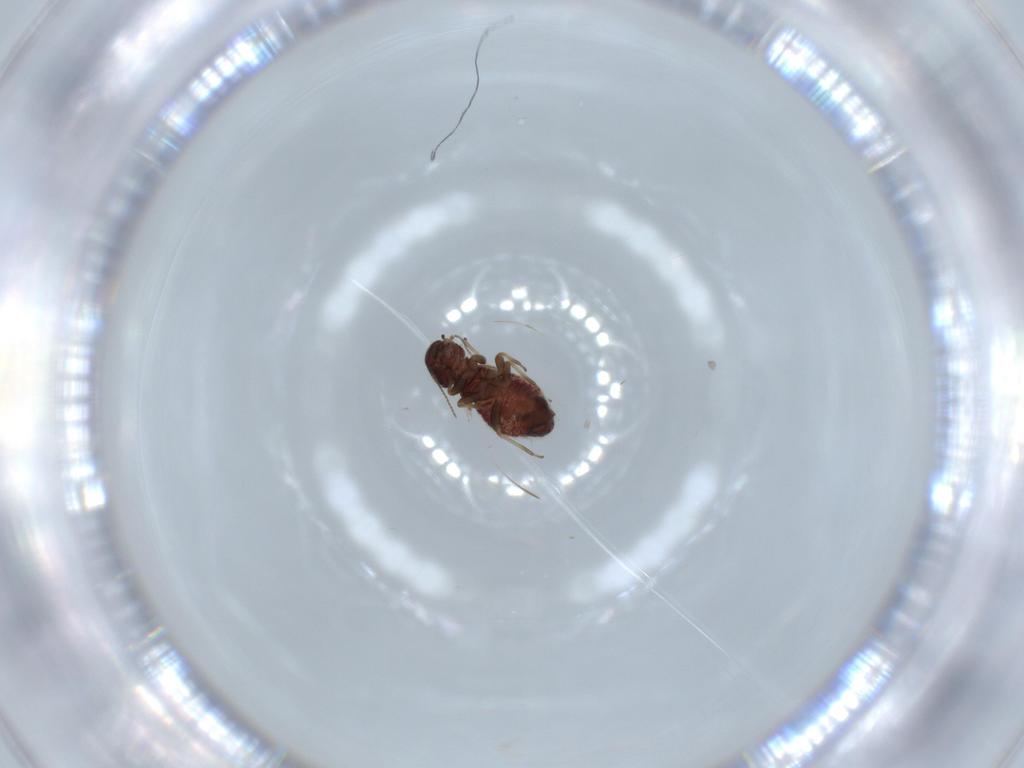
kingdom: Animalia
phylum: Arthropoda
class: Insecta
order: Psocodea
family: Archipsocidae
